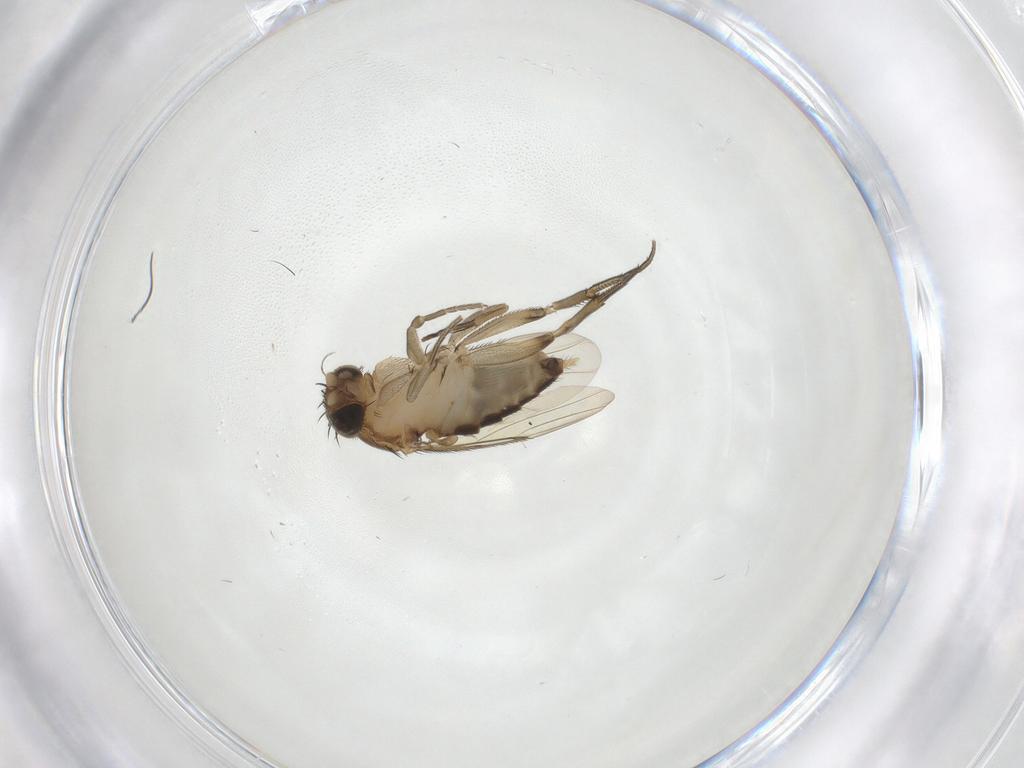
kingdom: Animalia
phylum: Arthropoda
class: Insecta
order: Diptera
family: Phoridae
